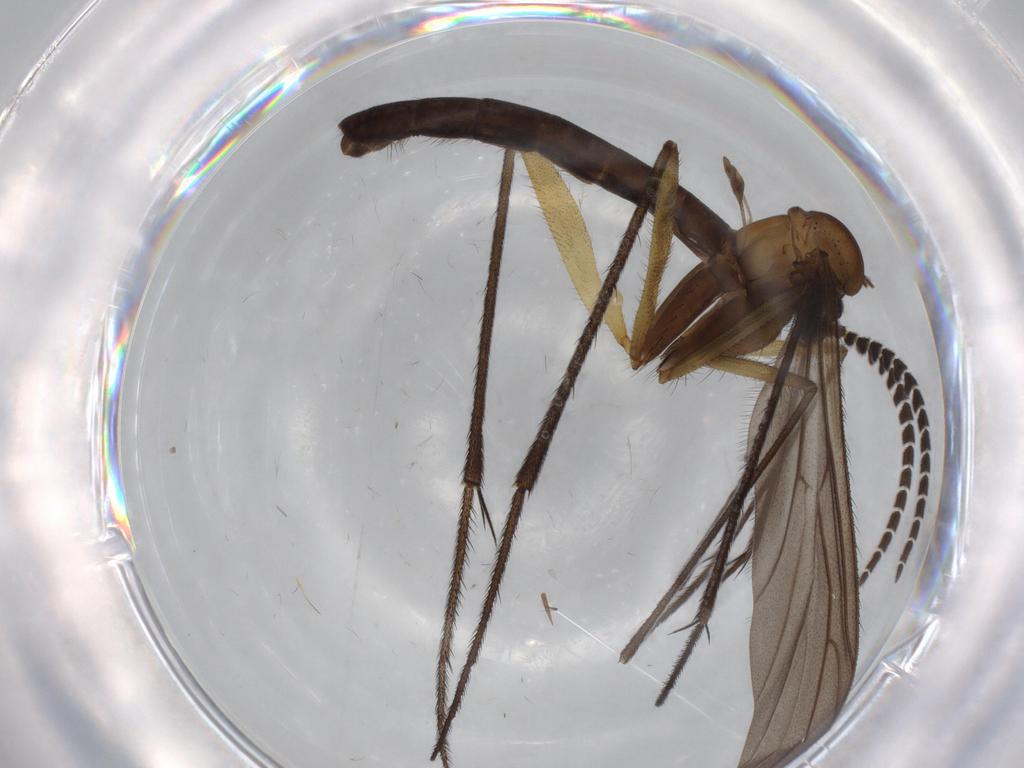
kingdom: Animalia
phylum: Arthropoda
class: Insecta
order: Diptera
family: Ditomyiidae
